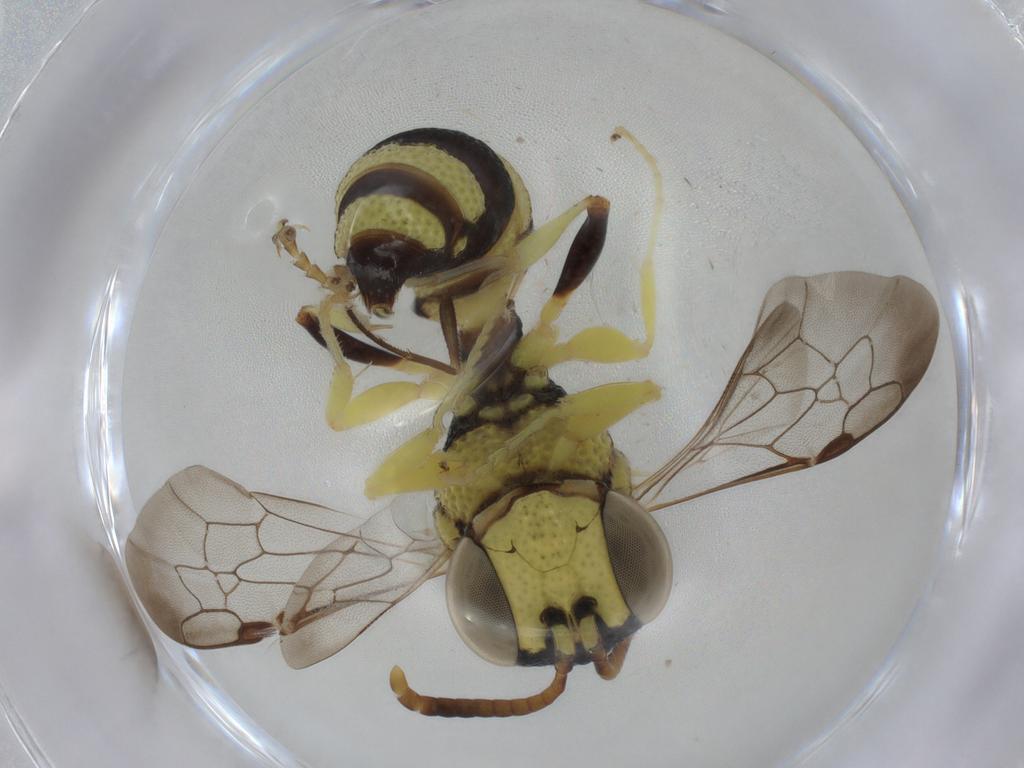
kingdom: Animalia
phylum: Arthropoda
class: Insecta
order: Hymenoptera
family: Philanthidae
